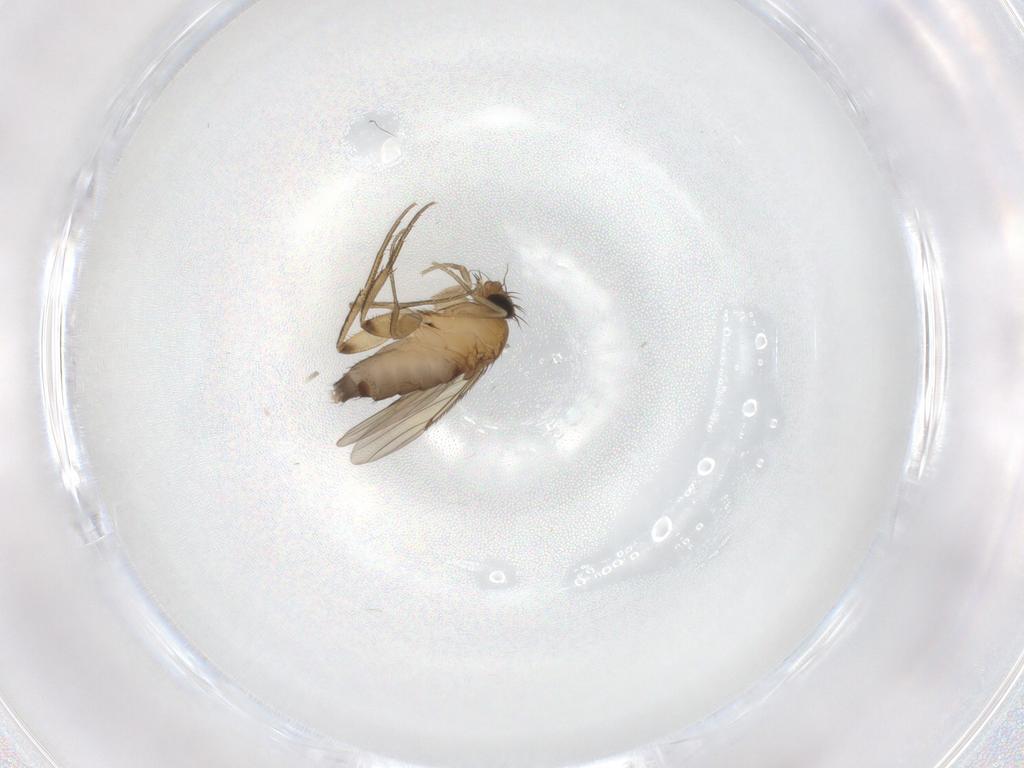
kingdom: Animalia
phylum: Arthropoda
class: Insecta
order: Diptera
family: Phoridae
